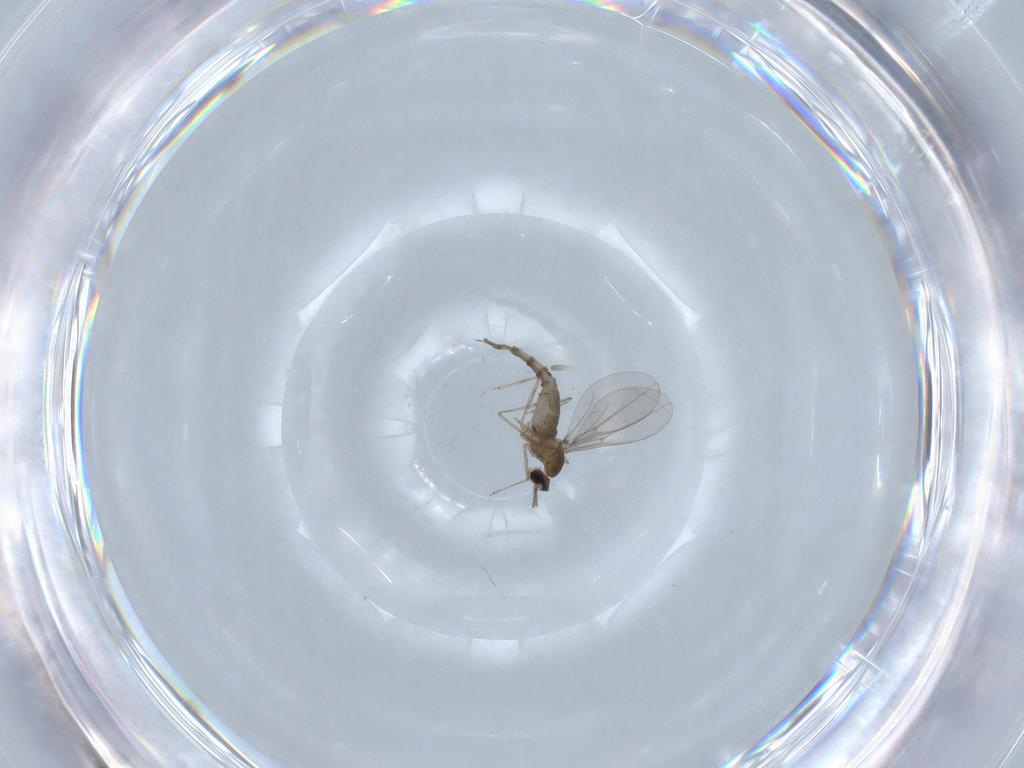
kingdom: Animalia
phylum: Arthropoda
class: Insecta
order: Diptera
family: Cecidomyiidae
